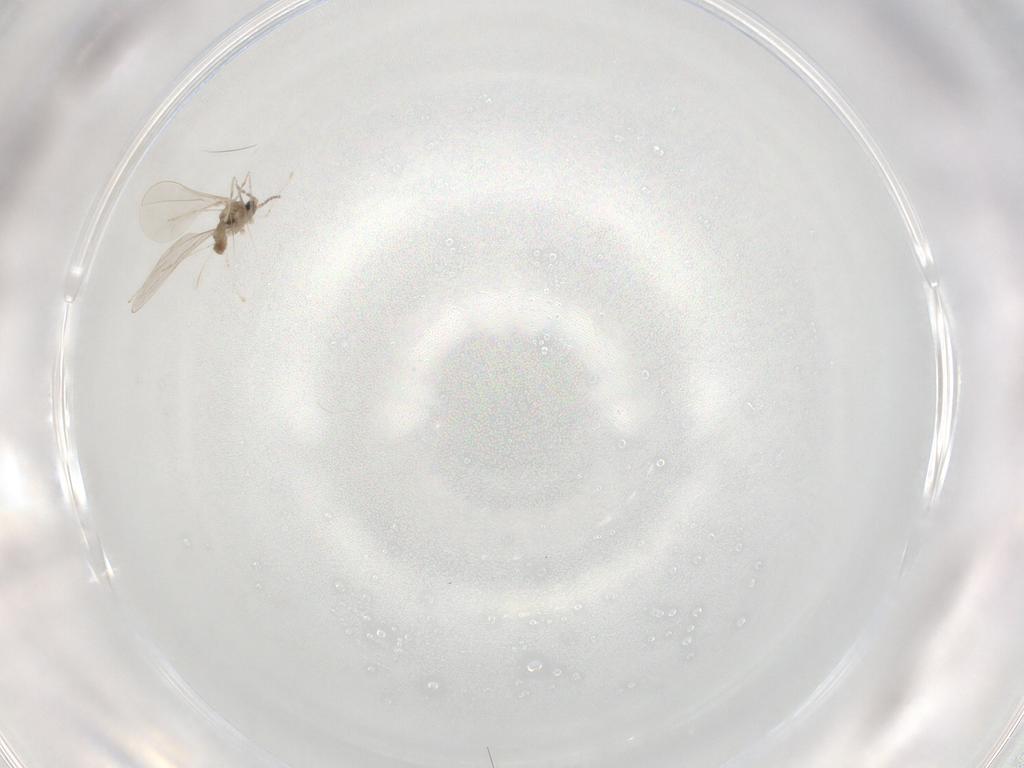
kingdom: Animalia
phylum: Arthropoda
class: Insecta
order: Diptera
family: Cecidomyiidae
